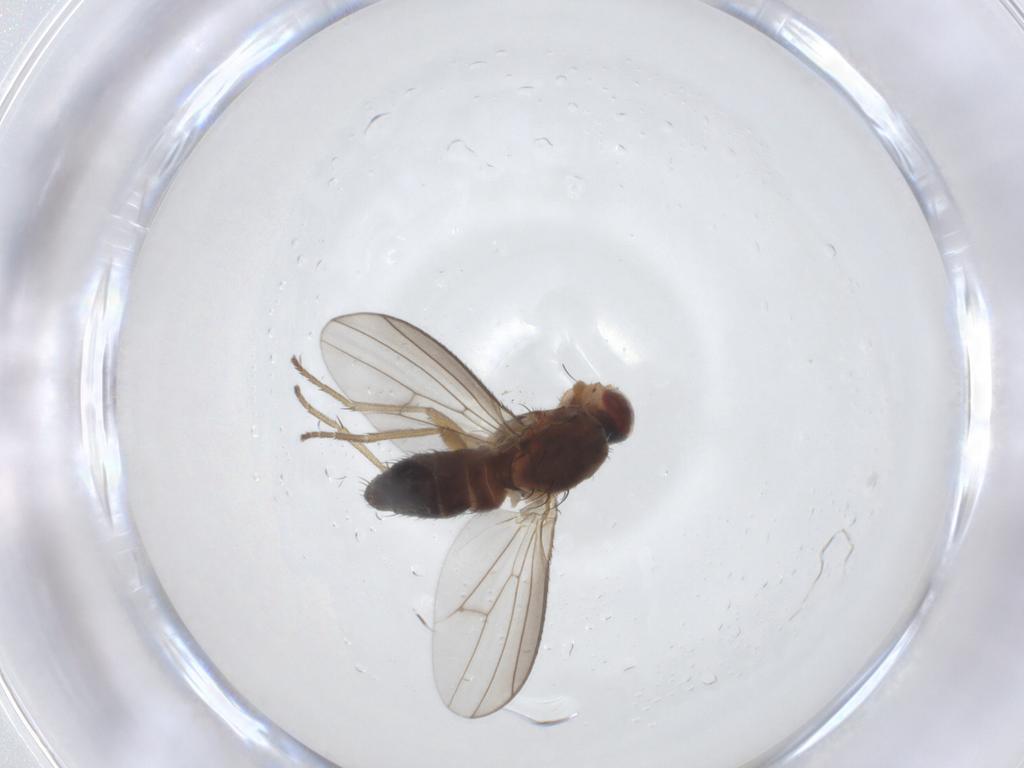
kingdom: Animalia
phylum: Arthropoda
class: Insecta
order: Diptera
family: Heleomyzidae
